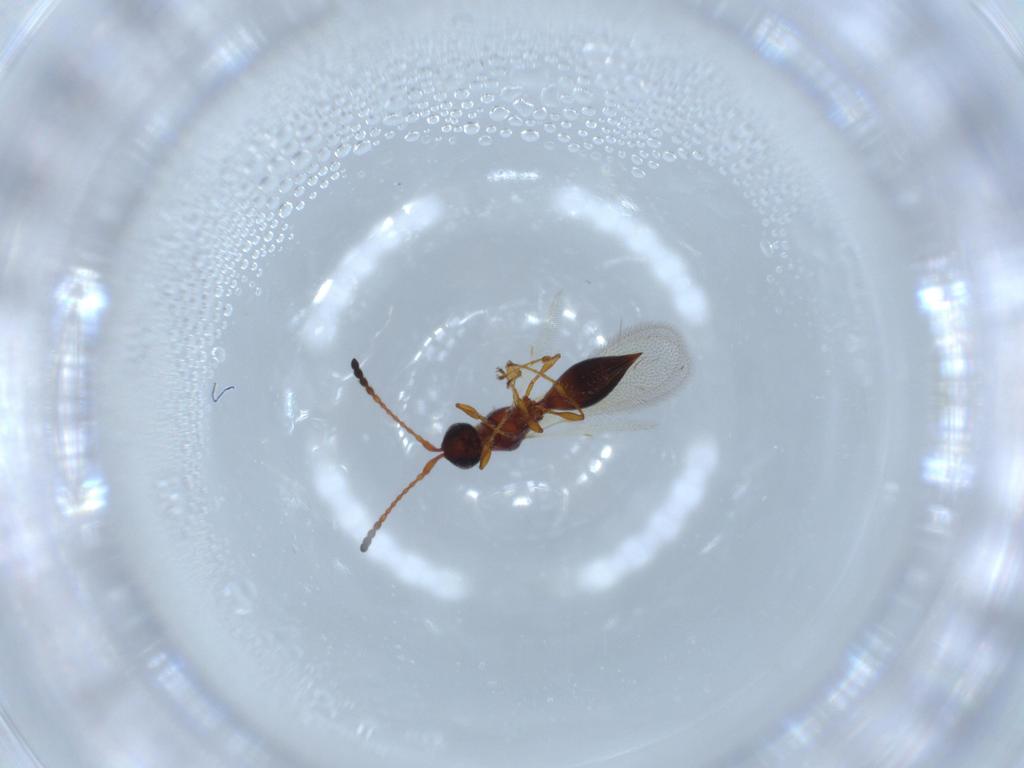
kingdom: Animalia
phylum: Arthropoda
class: Insecta
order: Hymenoptera
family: Diapriidae
